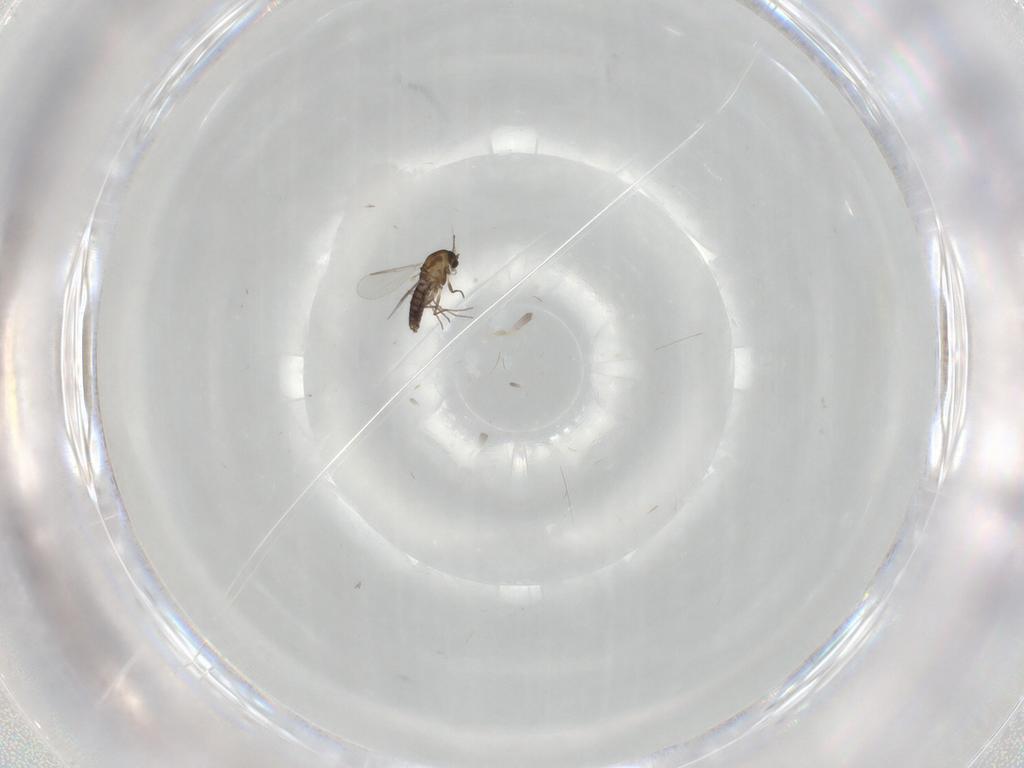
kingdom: Animalia
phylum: Arthropoda
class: Insecta
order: Diptera
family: Chironomidae
